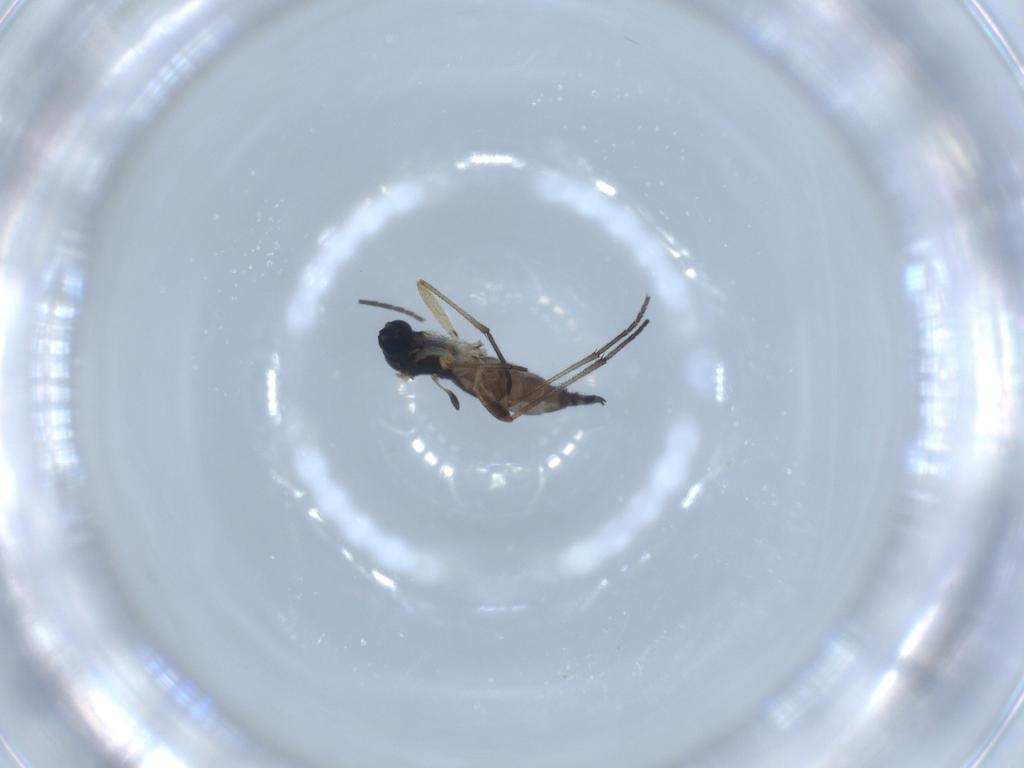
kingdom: Animalia
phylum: Arthropoda
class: Insecta
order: Diptera
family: Sciaridae
